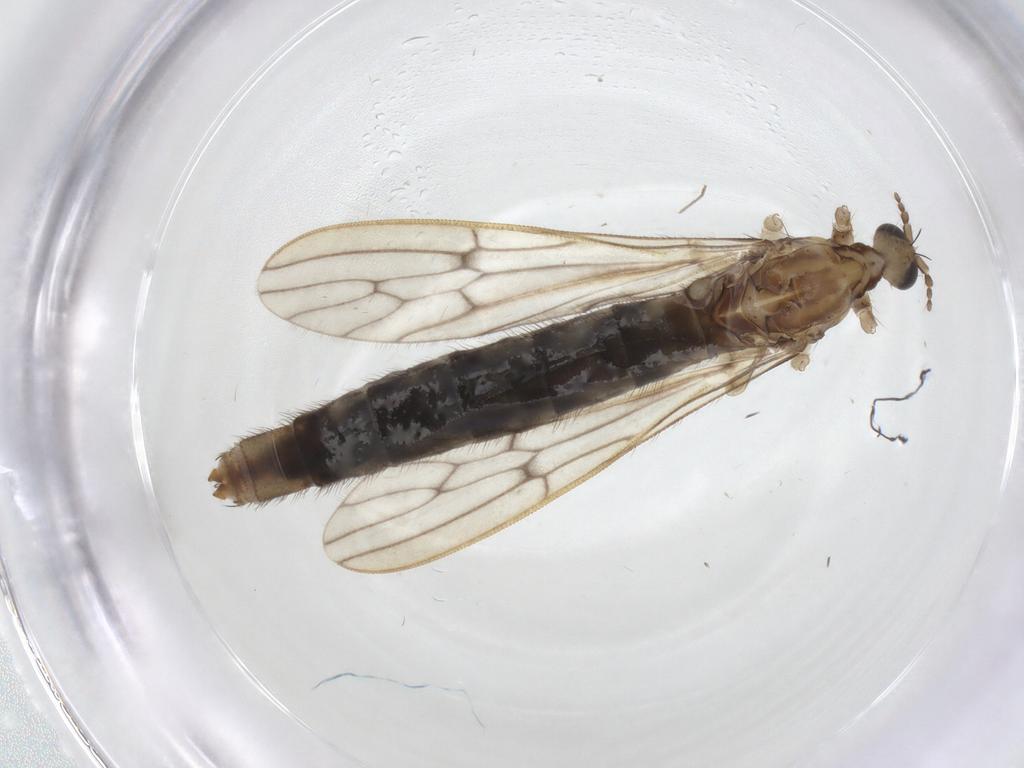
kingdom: Animalia
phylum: Arthropoda
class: Insecta
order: Diptera
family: Limoniidae
